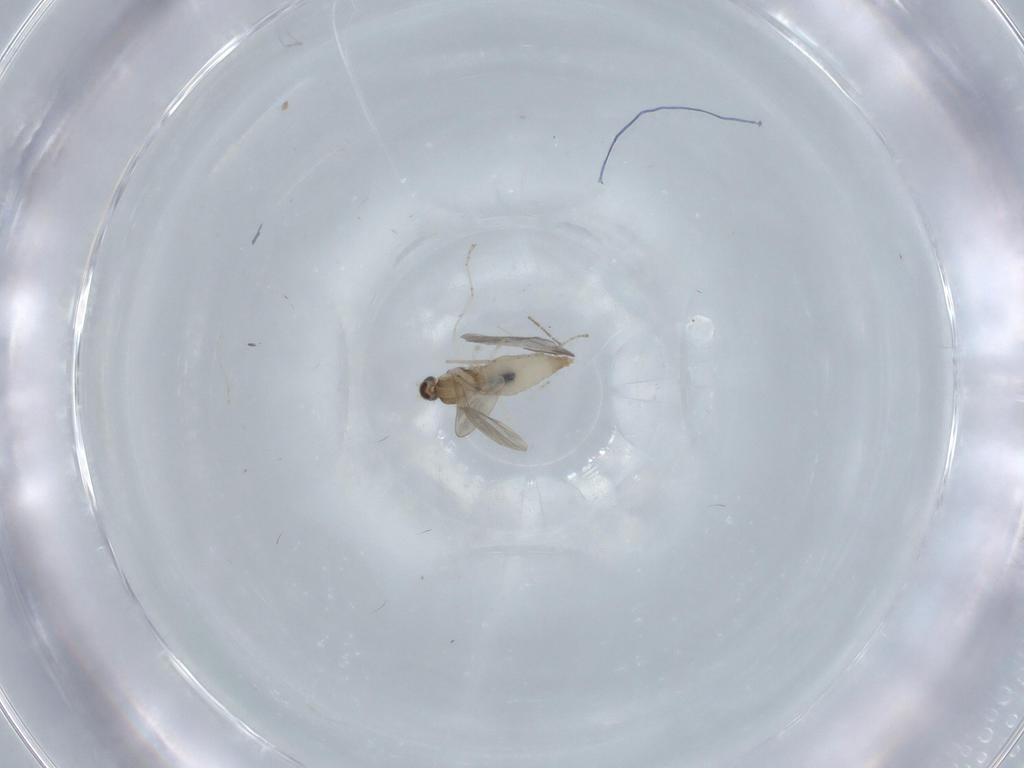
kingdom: Animalia
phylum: Arthropoda
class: Insecta
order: Diptera
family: Cecidomyiidae
